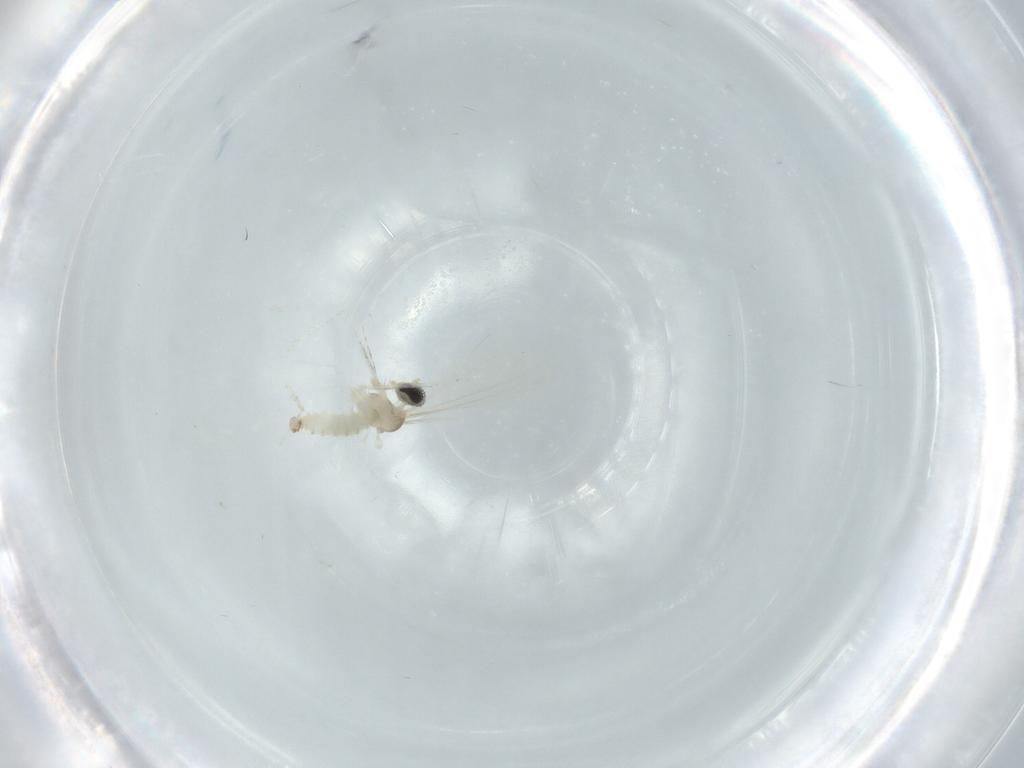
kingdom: Animalia
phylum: Arthropoda
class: Insecta
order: Diptera
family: Cecidomyiidae
